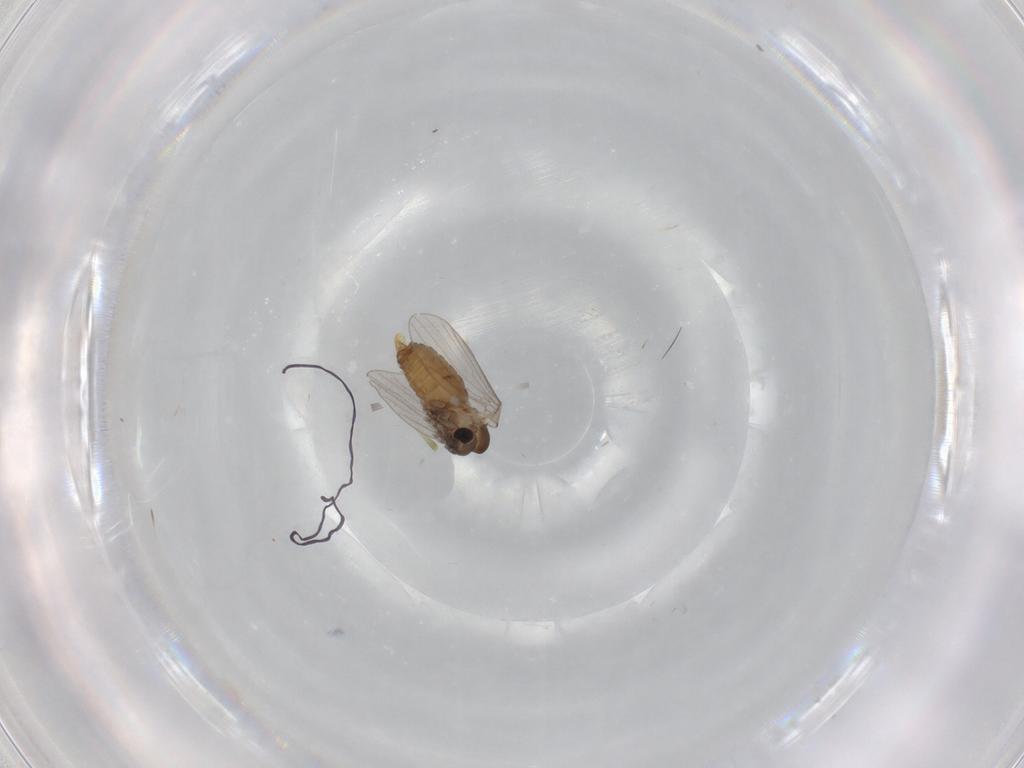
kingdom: Animalia
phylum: Arthropoda
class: Insecta
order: Diptera
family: Chironomidae
